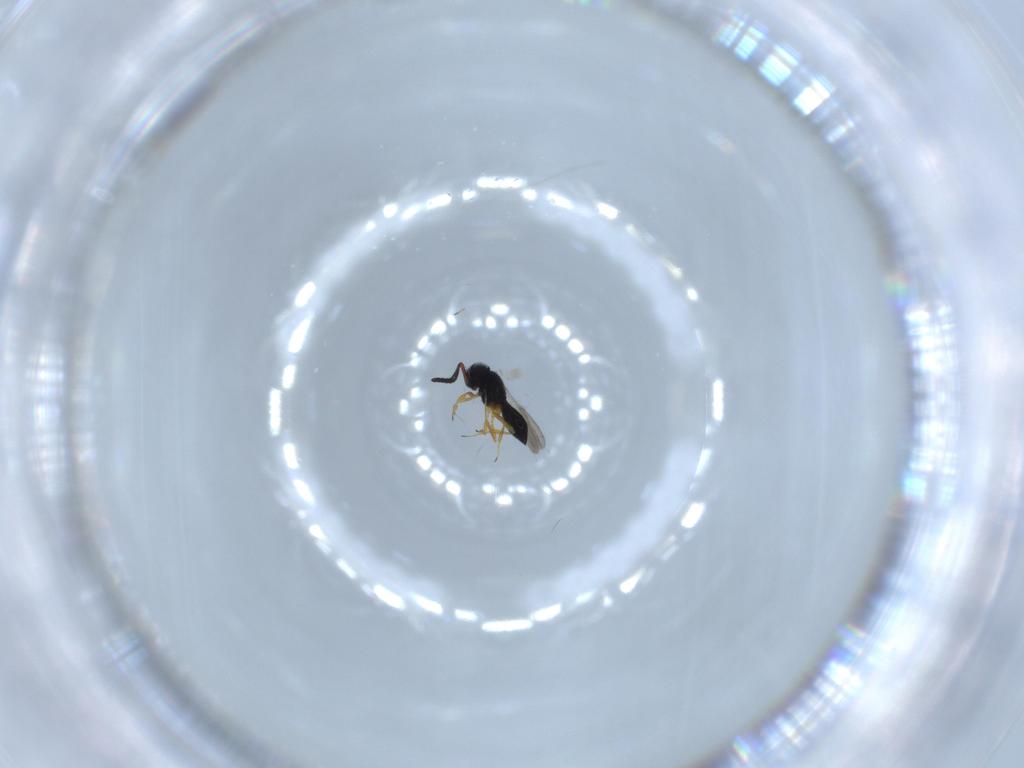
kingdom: Animalia
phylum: Arthropoda
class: Insecta
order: Hymenoptera
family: Scelionidae
